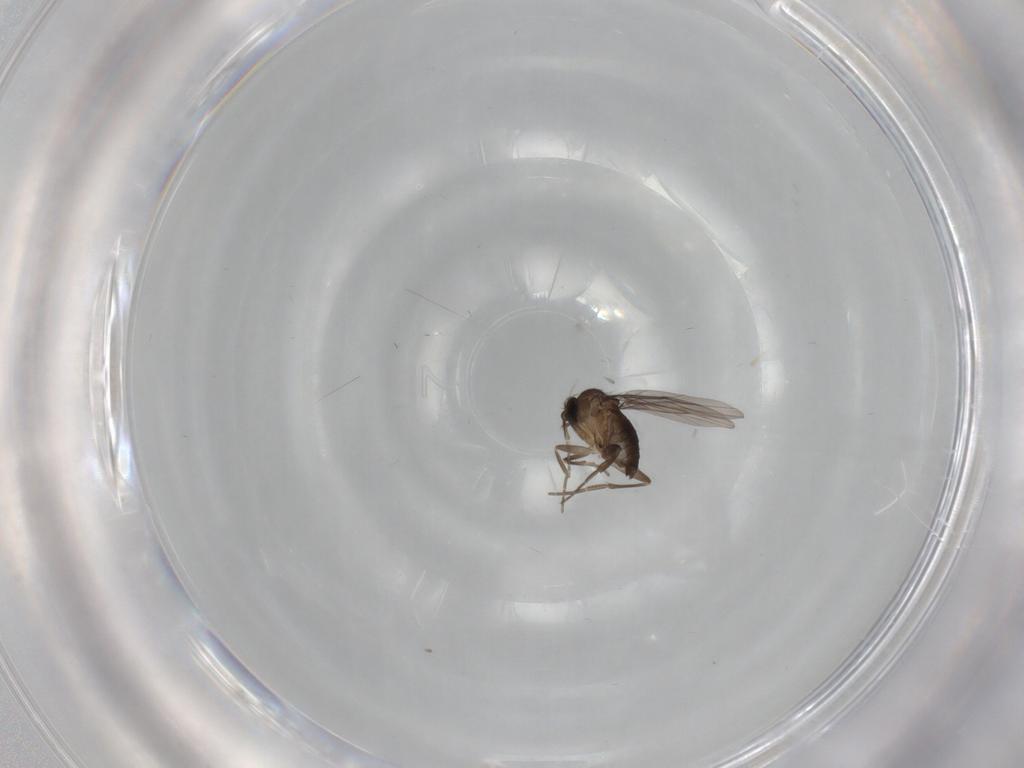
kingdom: Animalia
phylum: Arthropoda
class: Insecta
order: Diptera
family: Phoridae
